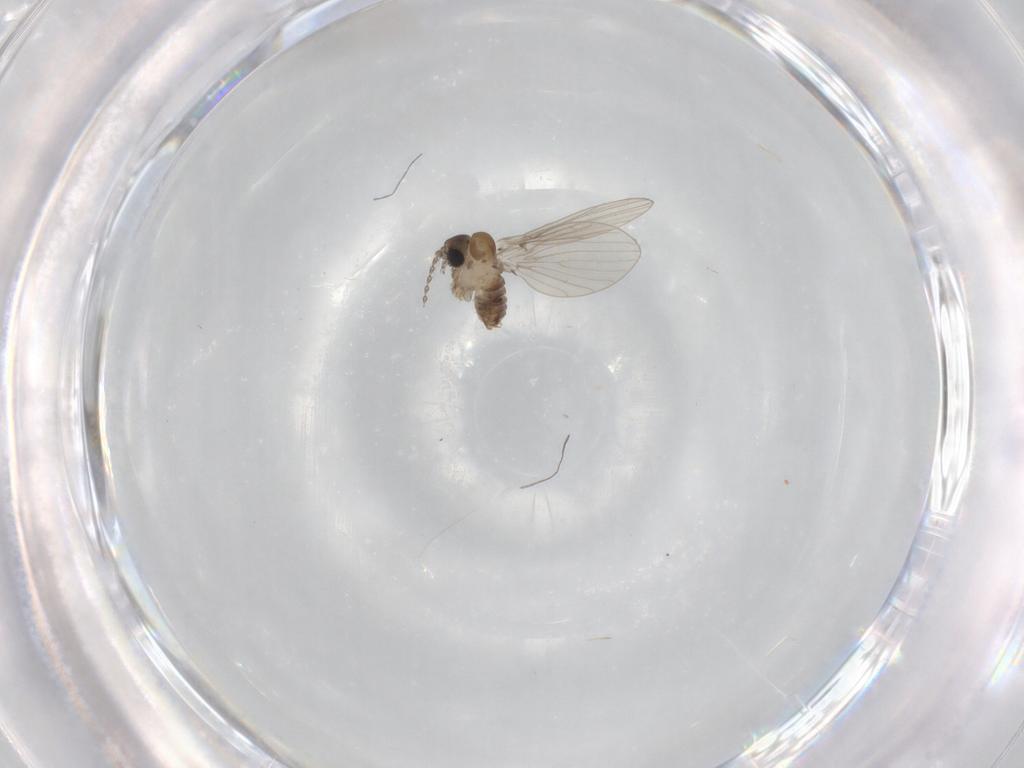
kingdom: Animalia
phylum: Arthropoda
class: Insecta
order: Diptera
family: Psychodidae
